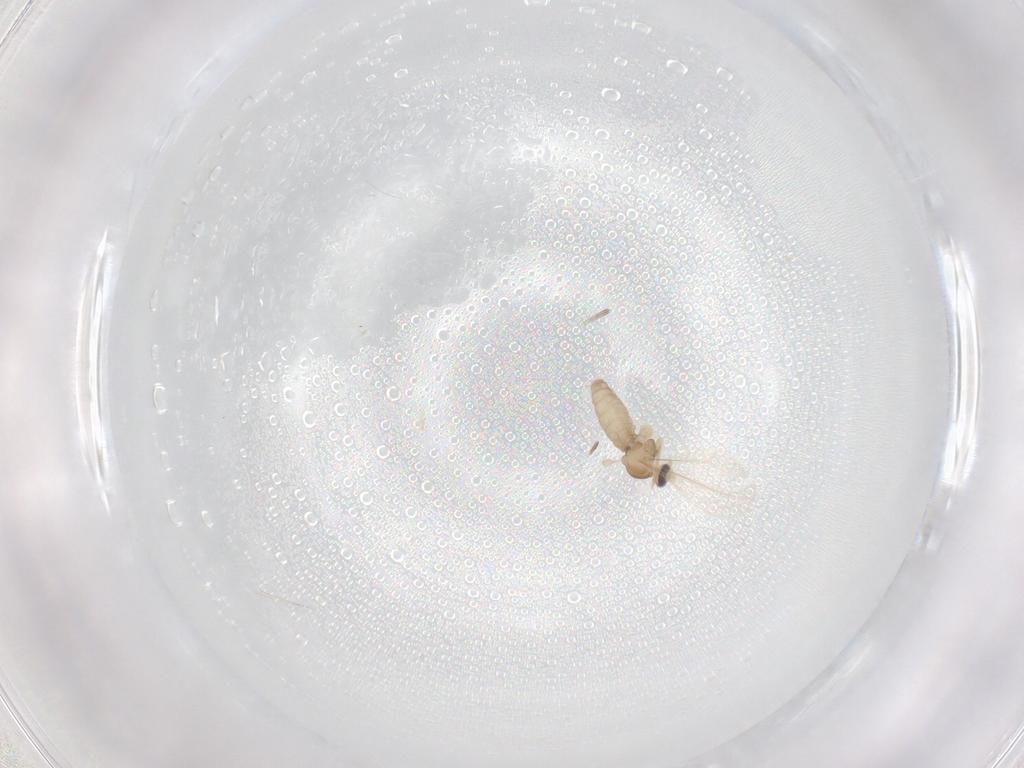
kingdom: Animalia
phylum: Arthropoda
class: Insecta
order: Diptera
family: Cecidomyiidae
